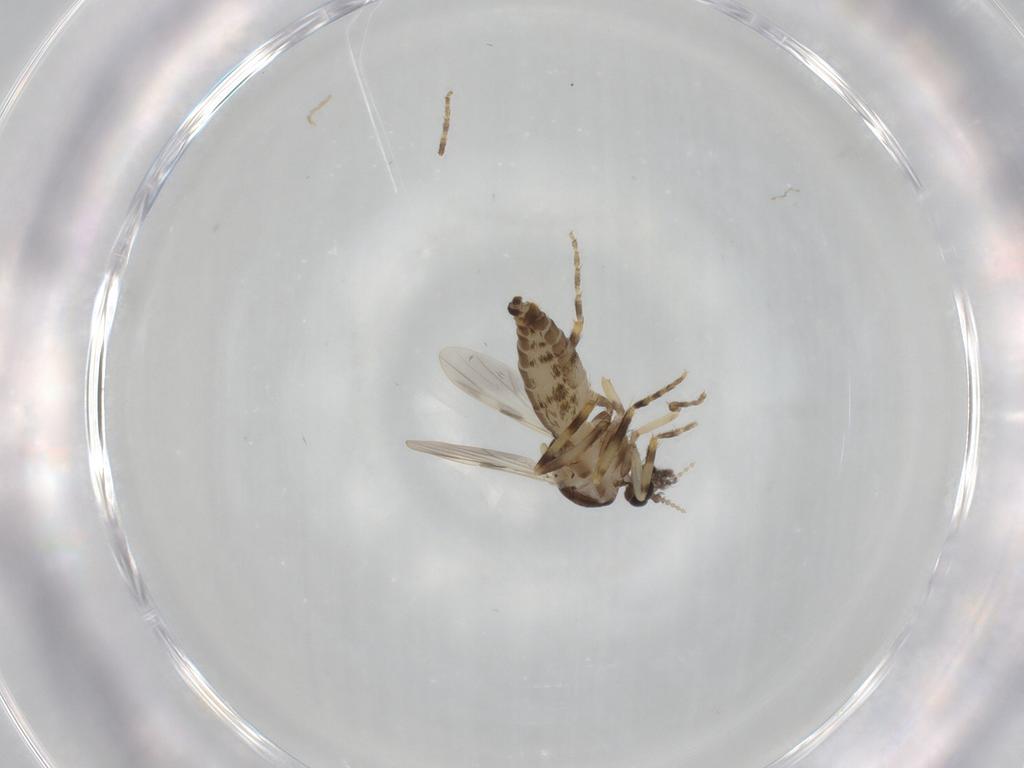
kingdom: Animalia
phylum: Arthropoda
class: Insecta
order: Diptera
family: Ceratopogonidae
